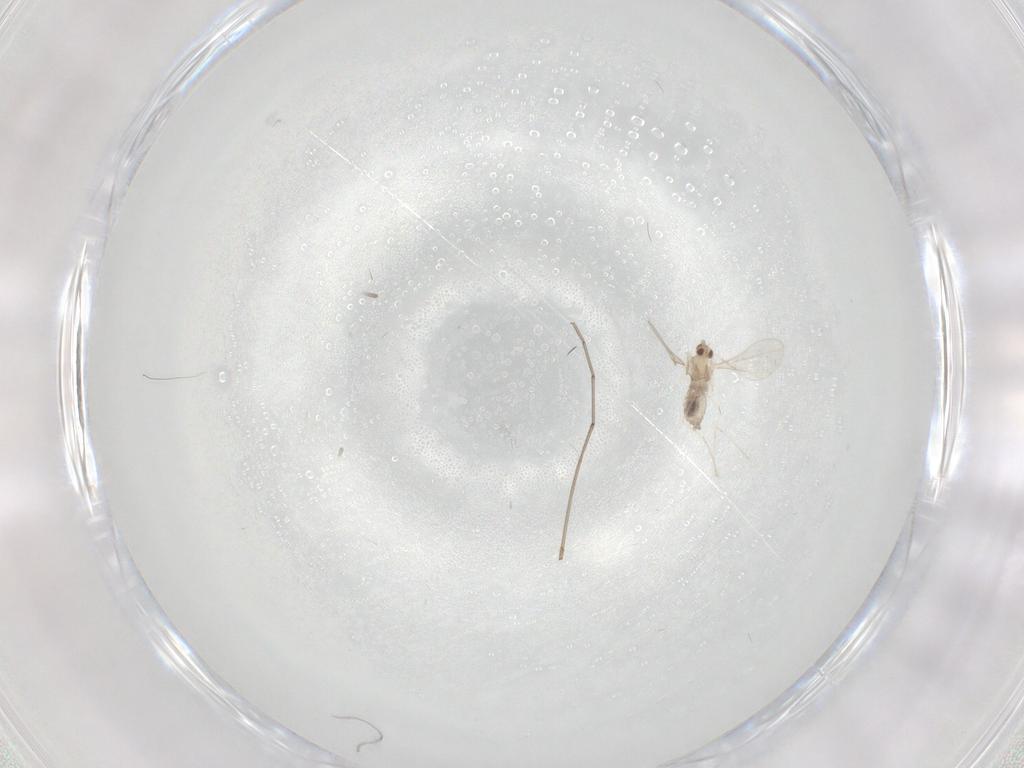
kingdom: Animalia
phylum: Arthropoda
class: Insecta
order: Diptera
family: Cecidomyiidae
